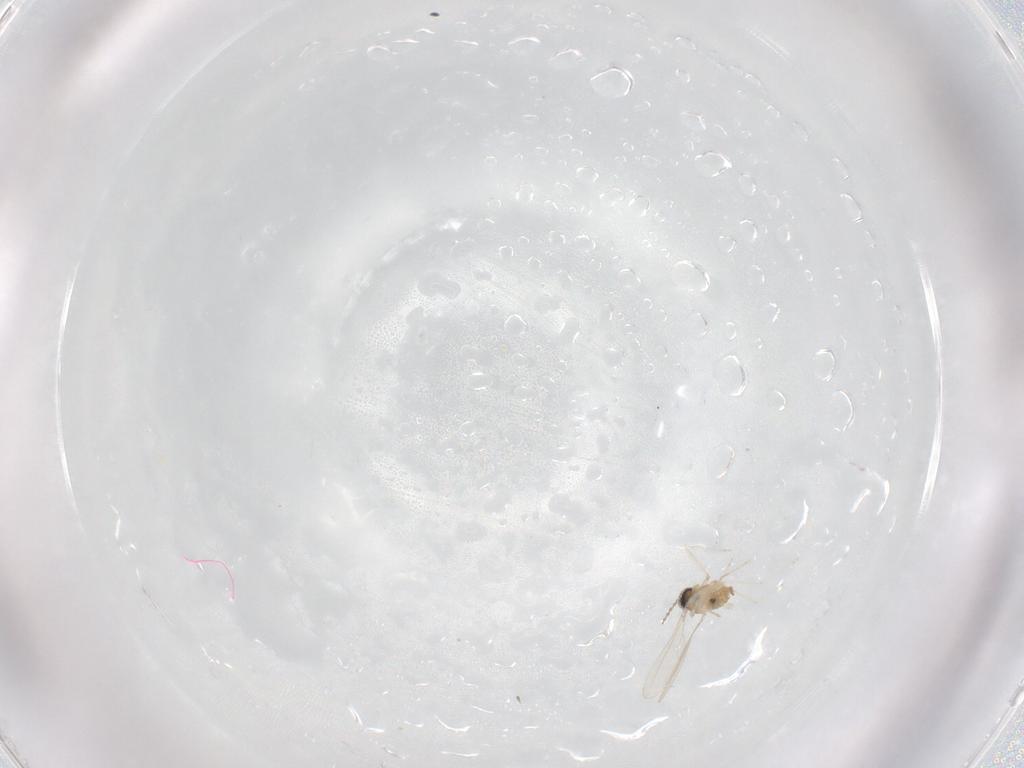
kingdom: Animalia
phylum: Arthropoda
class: Insecta
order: Diptera
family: Cecidomyiidae
